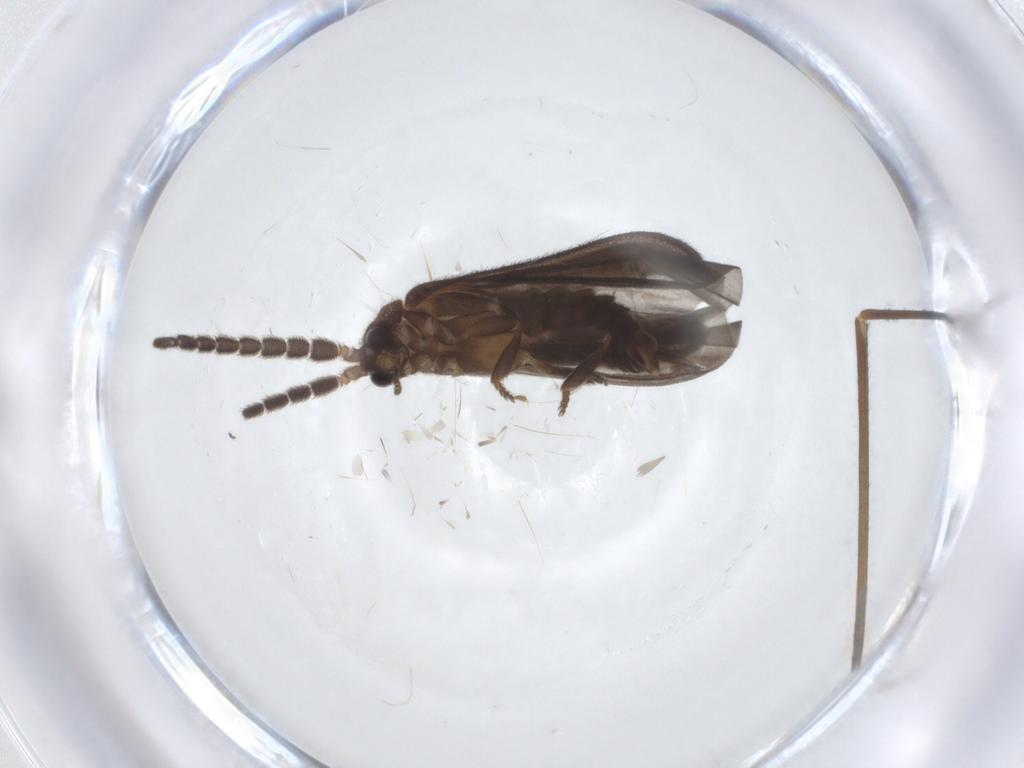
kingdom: Animalia
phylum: Arthropoda
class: Insecta
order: Coleoptera
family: Lycidae
